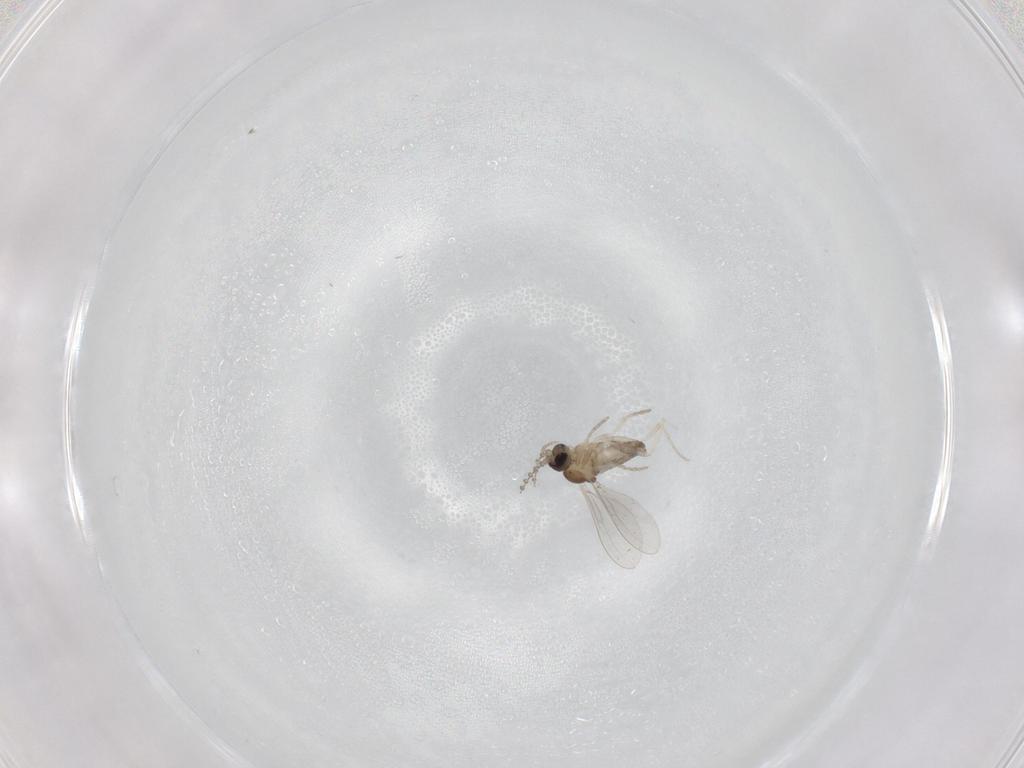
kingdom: Animalia
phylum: Arthropoda
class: Insecta
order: Diptera
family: Cecidomyiidae
